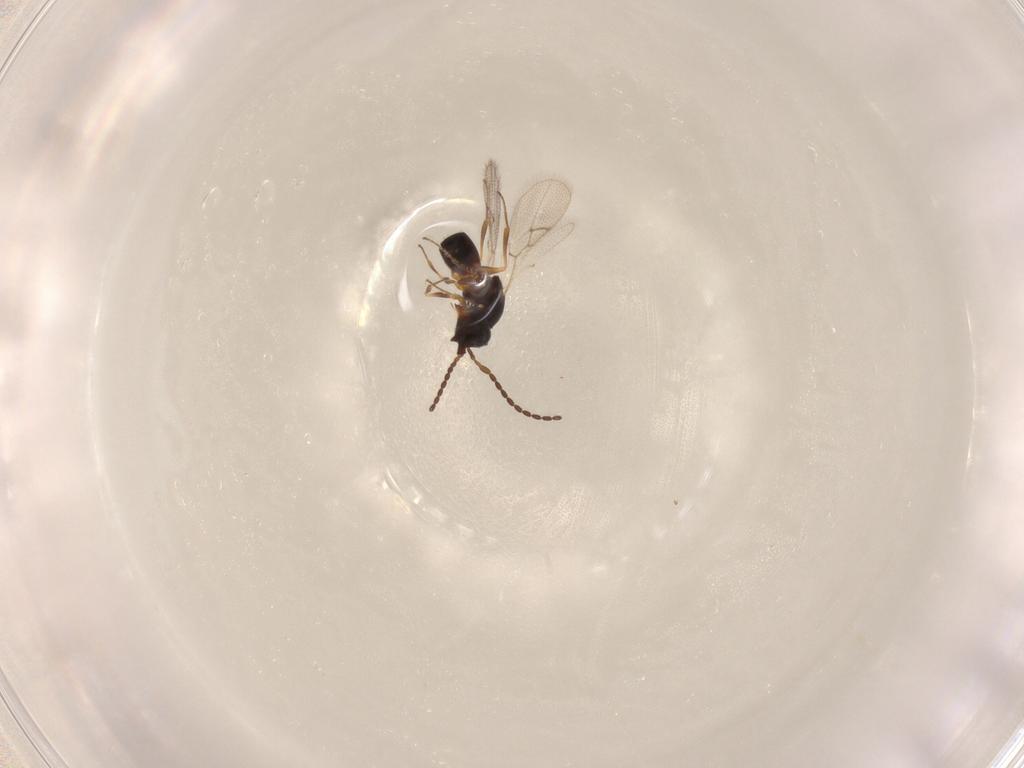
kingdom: Animalia
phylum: Arthropoda
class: Insecta
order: Hymenoptera
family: Figitidae
